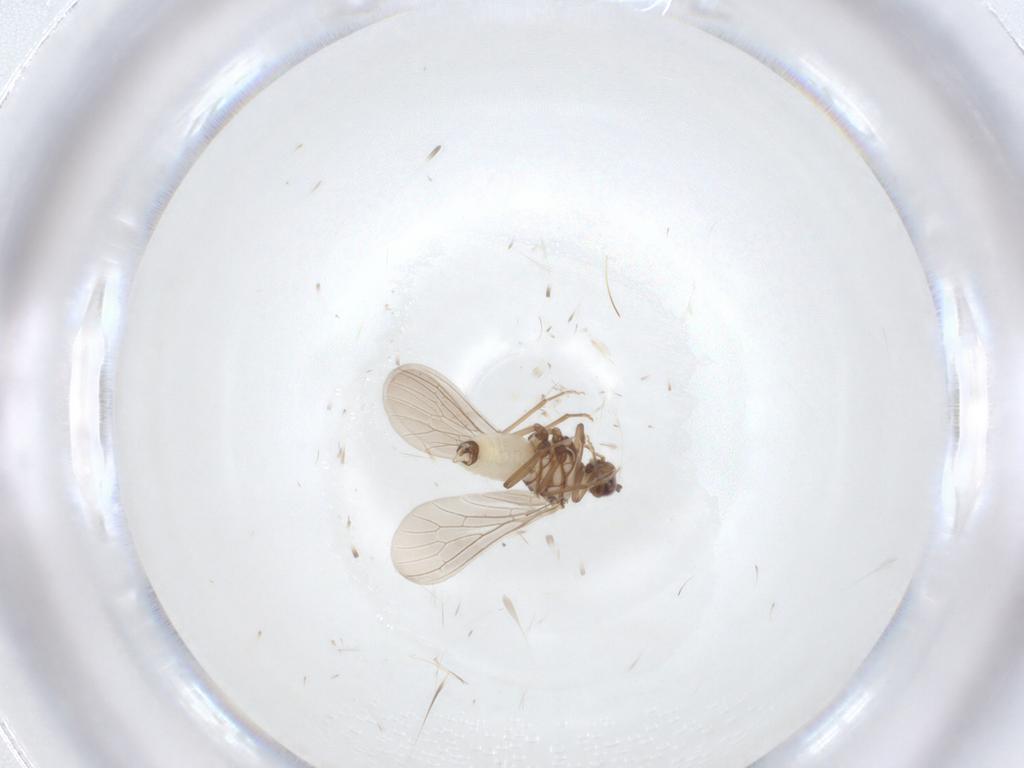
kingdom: Animalia
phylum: Arthropoda
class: Insecta
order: Neuroptera
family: Coniopterygidae
